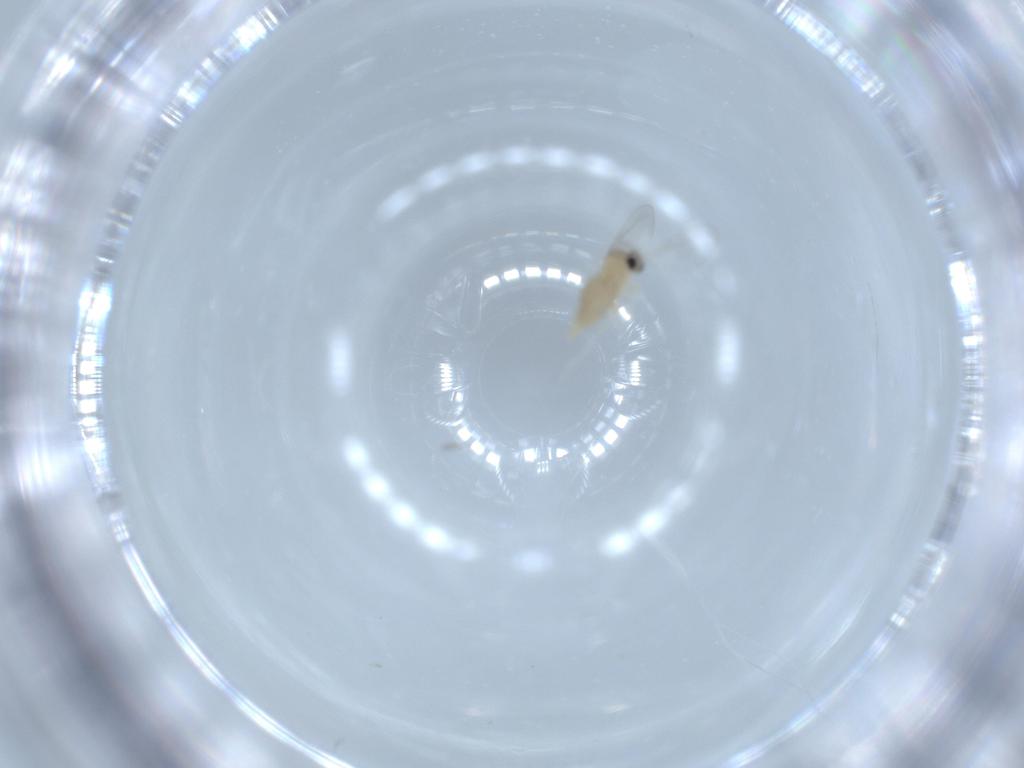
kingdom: Animalia
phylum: Arthropoda
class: Insecta
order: Diptera
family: Cecidomyiidae
